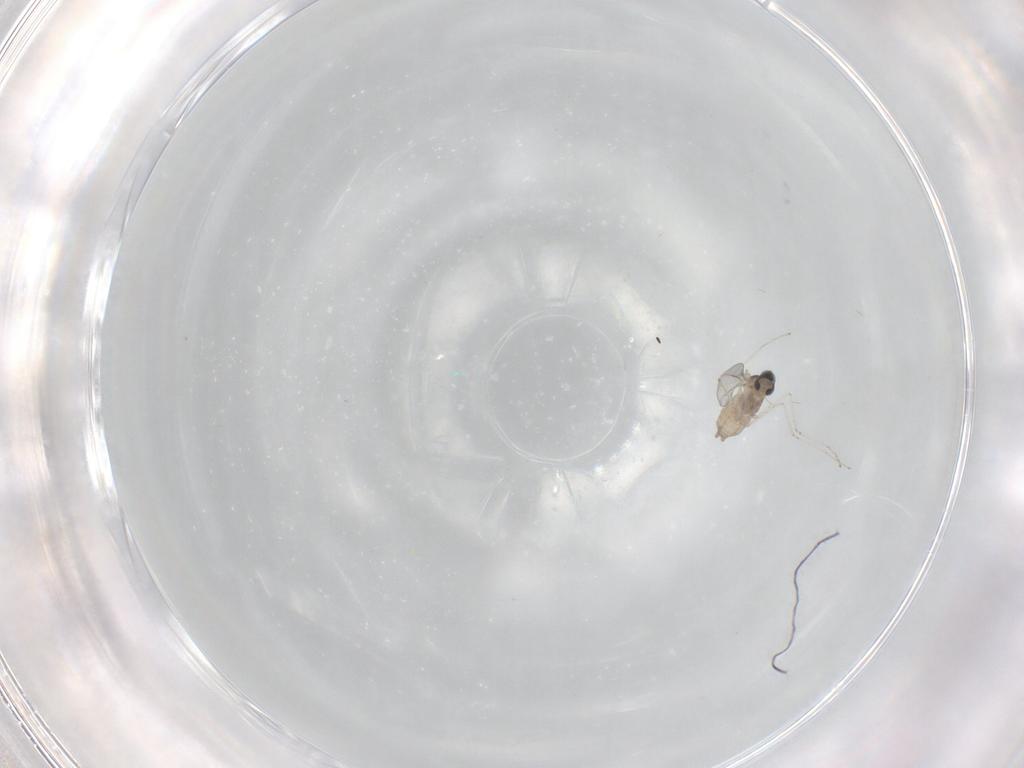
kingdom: Animalia
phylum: Arthropoda
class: Insecta
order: Diptera
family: Cecidomyiidae
